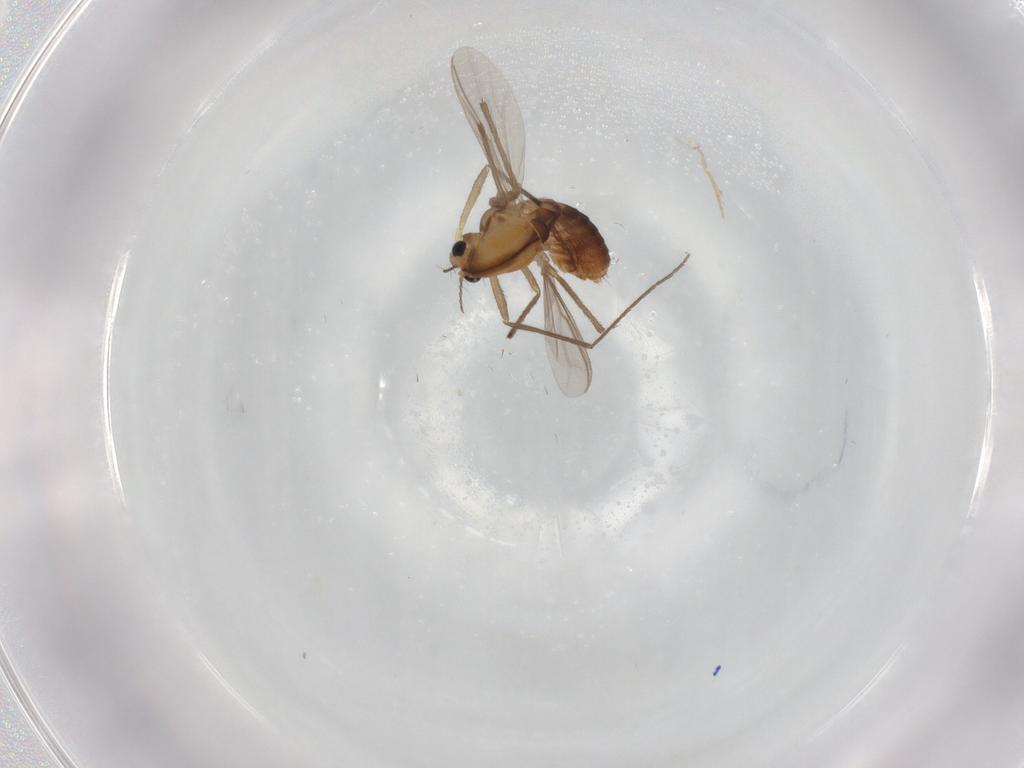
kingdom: Animalia
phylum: Arthropoda
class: Insecta
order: Diptera
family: Chironomidae
